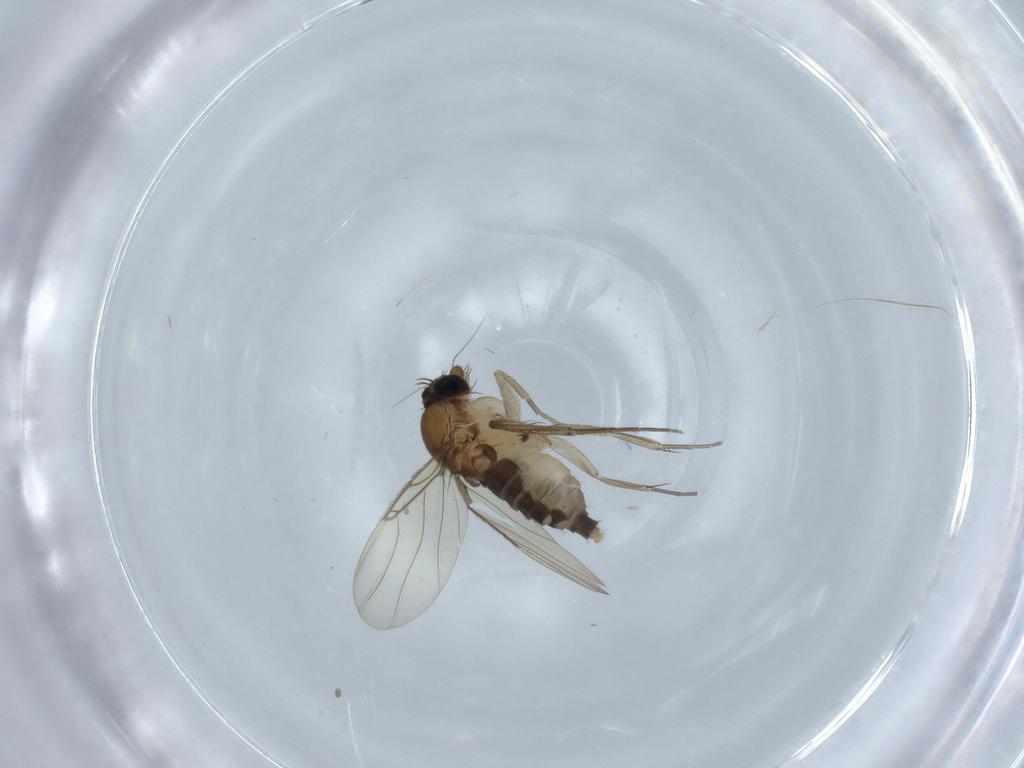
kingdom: Animalia
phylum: Arthropoda
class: Insecta
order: Diptera
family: Phoridae
